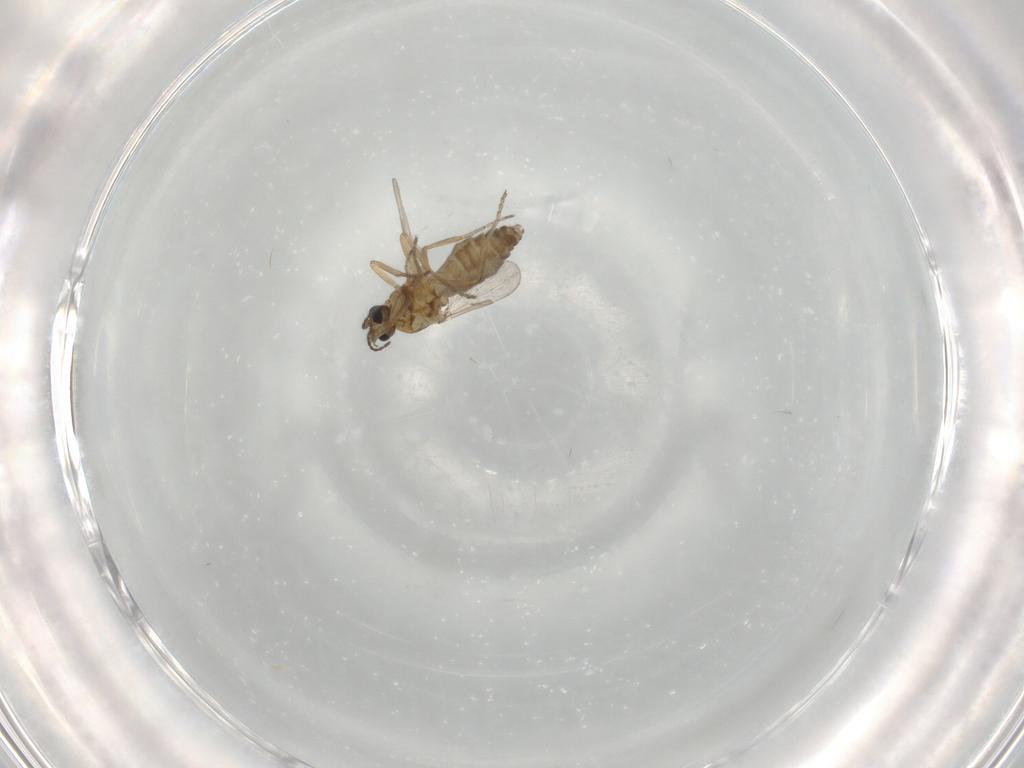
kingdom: Animalia
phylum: Arthropoda
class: Insecta
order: Diptera
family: Ceratopogonidae
